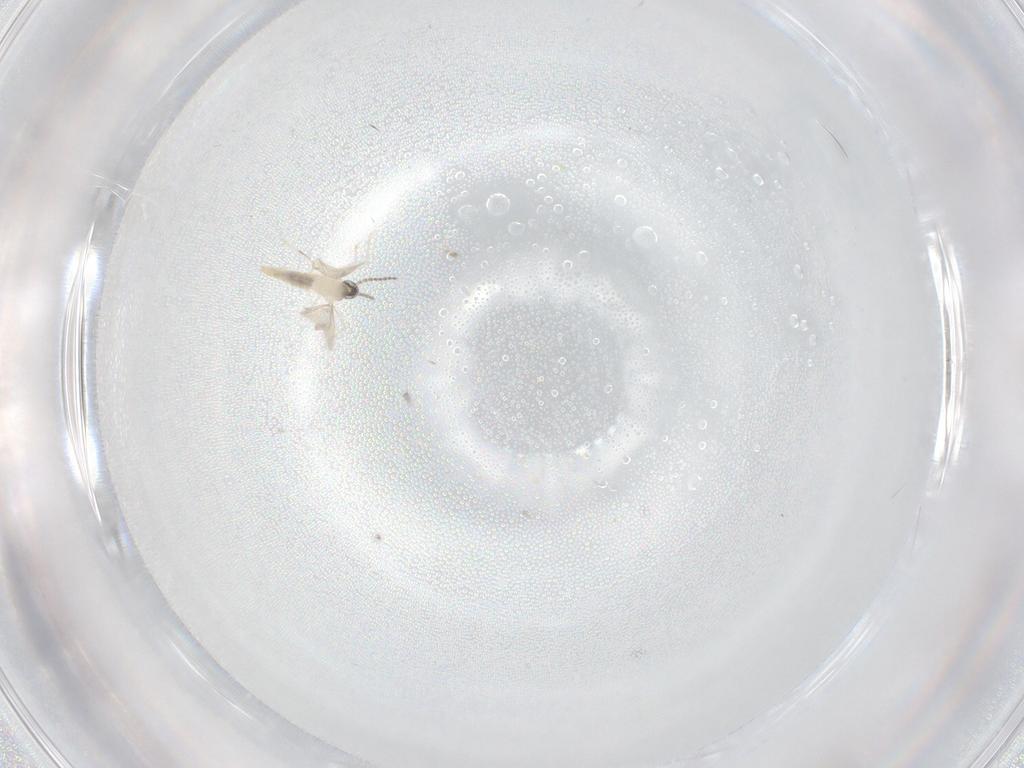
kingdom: Animalia
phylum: Arthropoda
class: Insecta
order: Diptera
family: Cecidomyiidae
